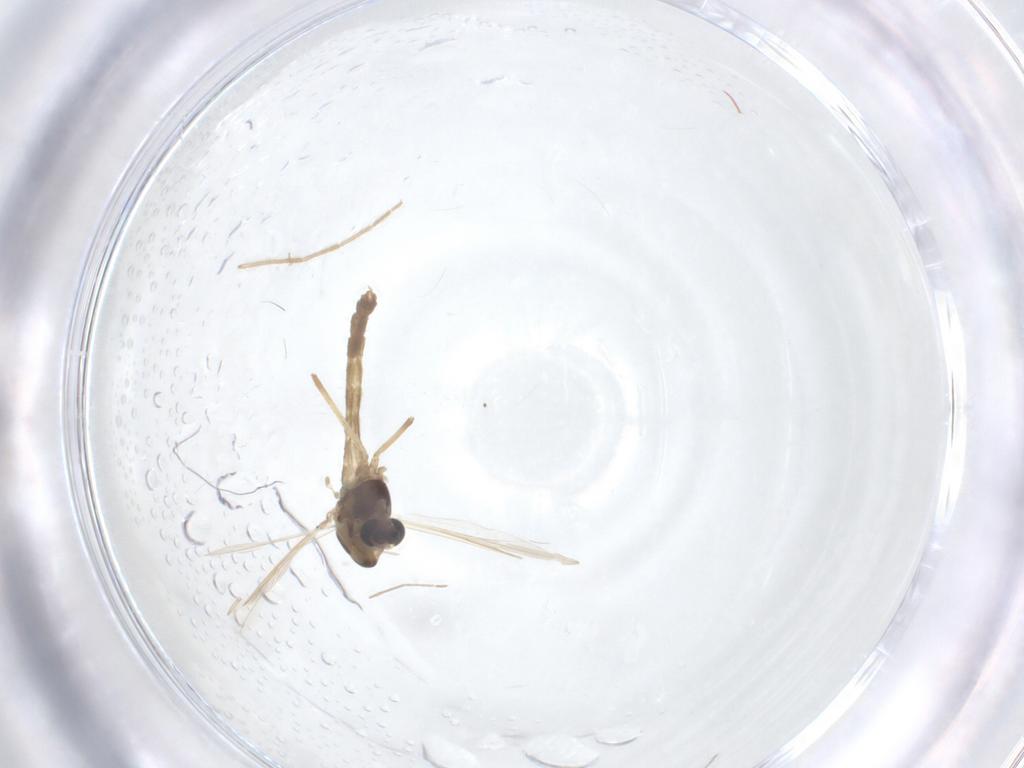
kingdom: Animalia
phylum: Arthropoda
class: Insecta
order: Diptera
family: Chironomidae
